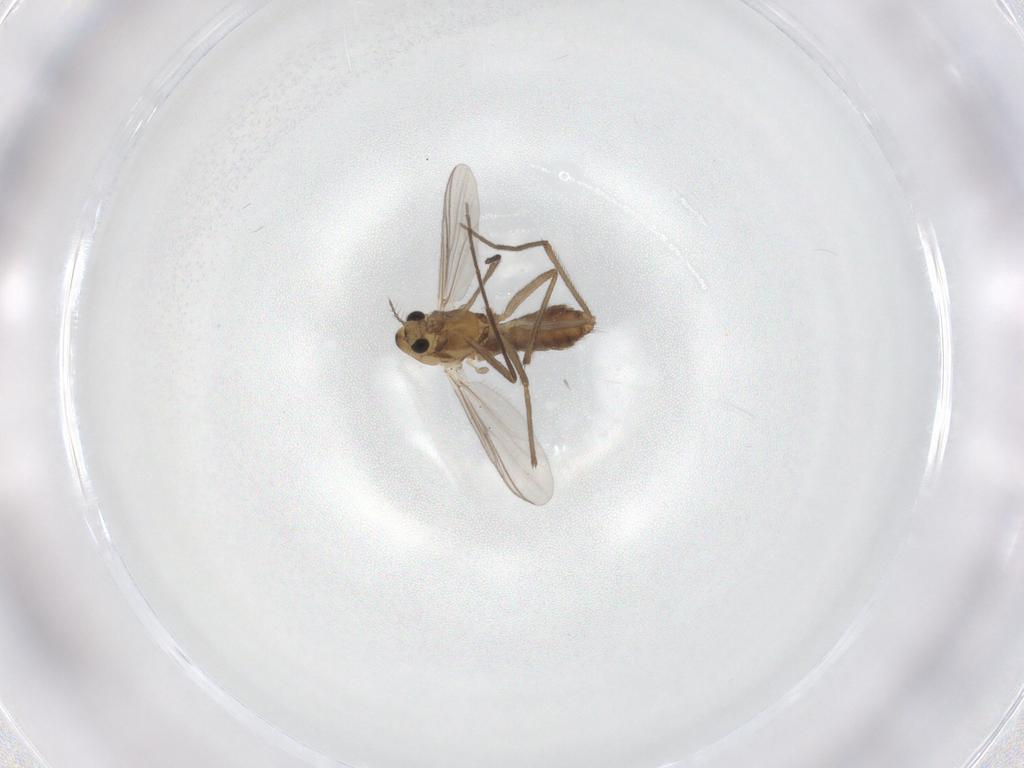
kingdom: Animalia
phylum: Arthropoda
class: Insecta
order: Diptera
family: Chironomidae
